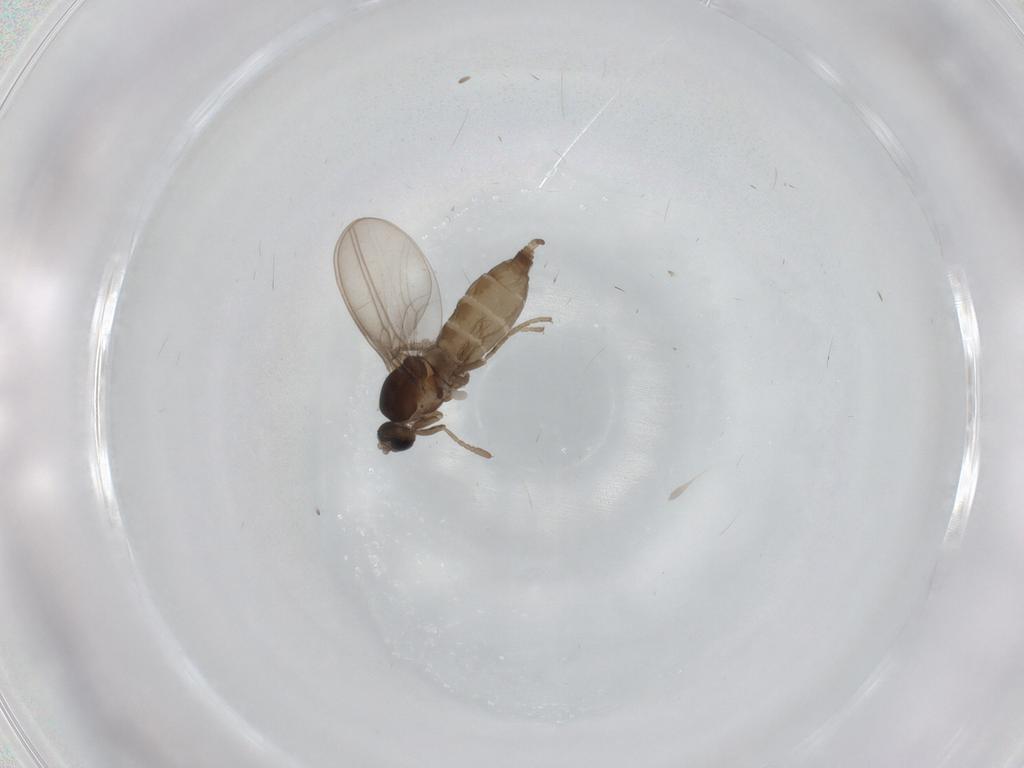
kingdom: Animalia
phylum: Arthropoda
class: Insecta
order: Diptera
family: Cecidomyiidae
